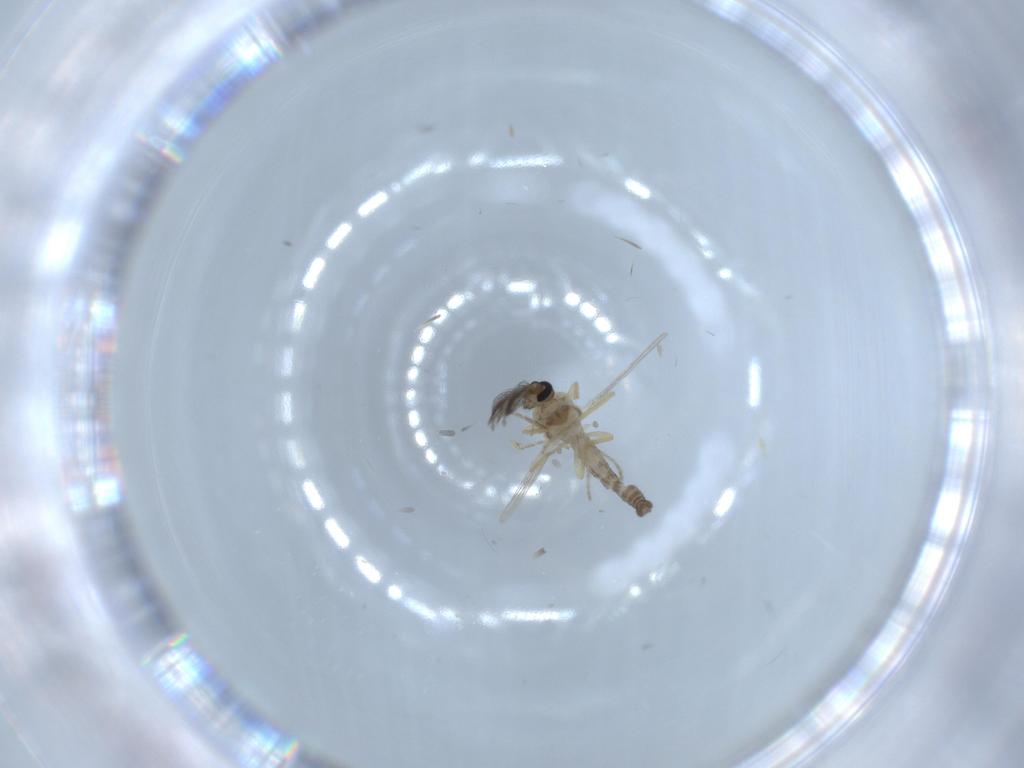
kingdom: Animalia
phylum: Arthropoda
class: Insecta
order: Diptera
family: Ceratopogonidae
